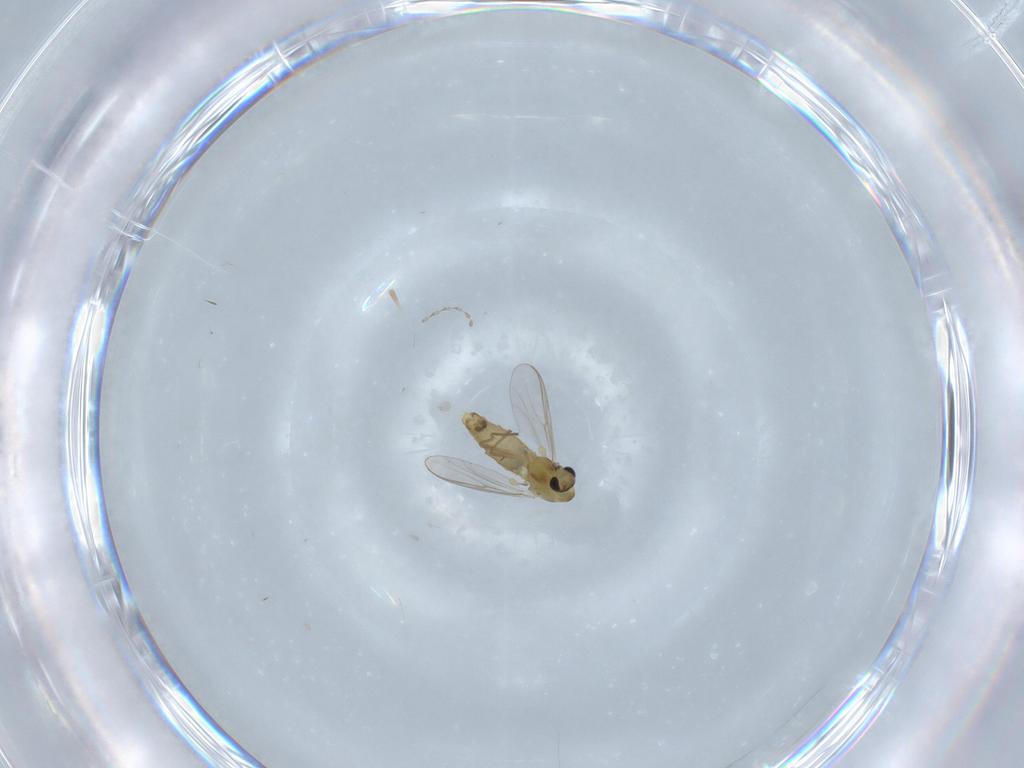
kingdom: Animalia
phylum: Arthropoda
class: Insecta
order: Diptera
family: Chironomidae
